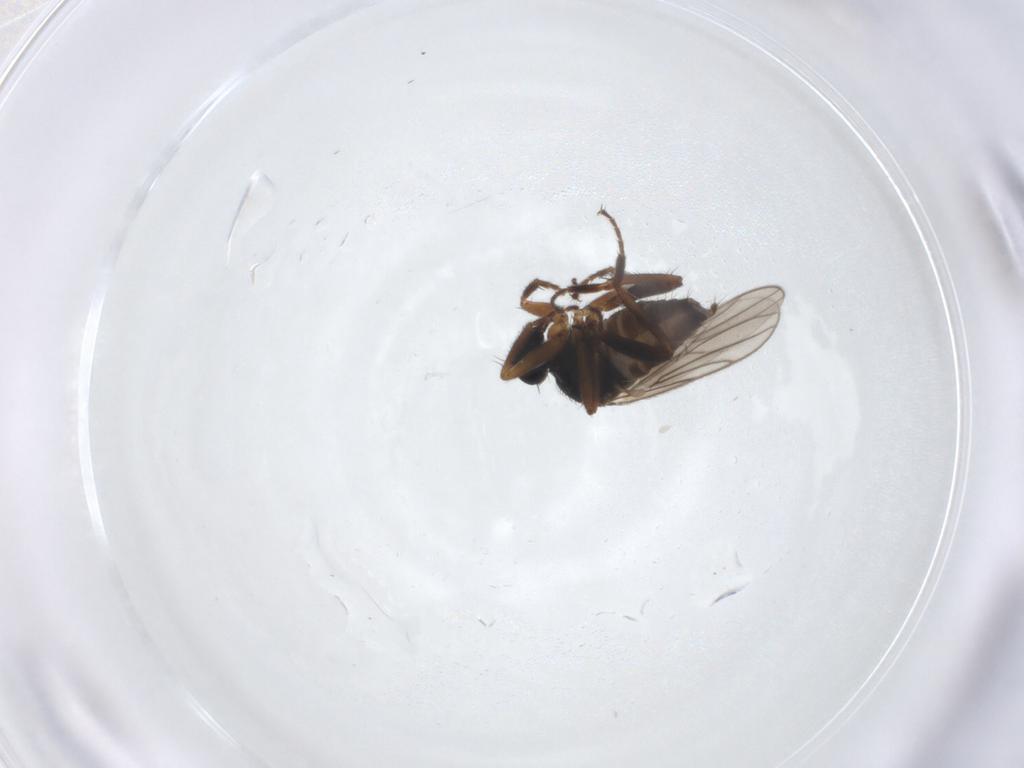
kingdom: Animalia
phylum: Arthropoda
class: Insecta
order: Diptera
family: Hybotidae
